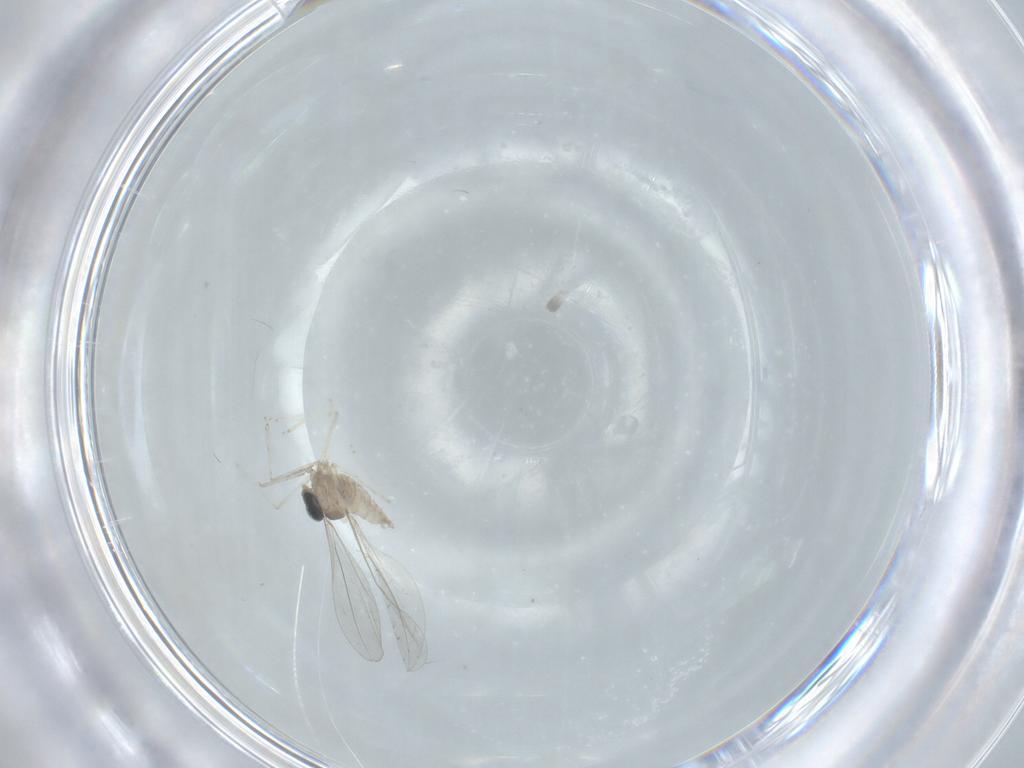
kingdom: Animalia
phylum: Arthropoda
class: Insecta
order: Diptera
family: Cecidomyiidae
